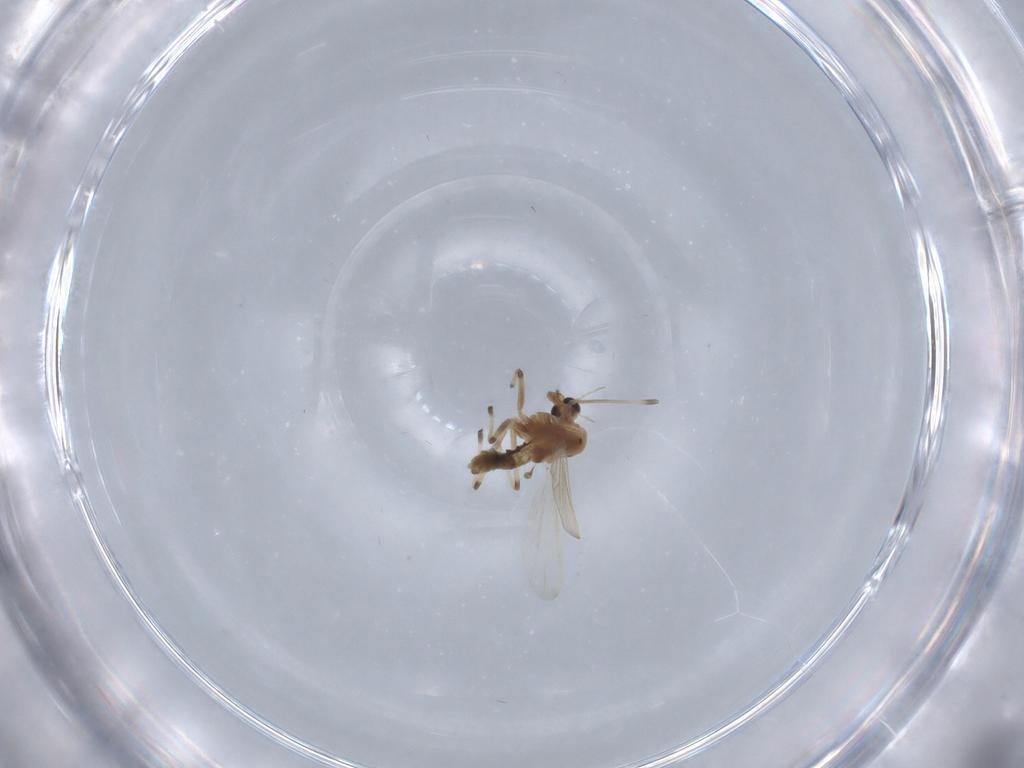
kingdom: Animalia
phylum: Arthropoda
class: Insecta
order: Diptera
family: Chironomidae
